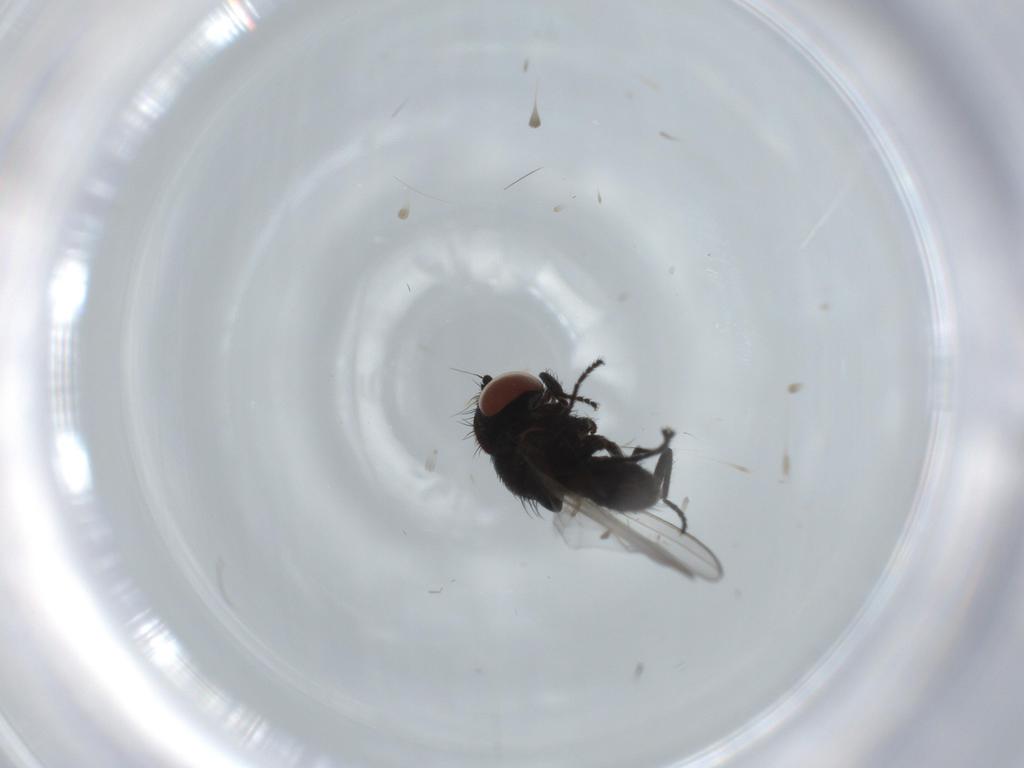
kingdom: Animalia
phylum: Arthropoda
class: Insecta
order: Diptera
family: Milichiidae
